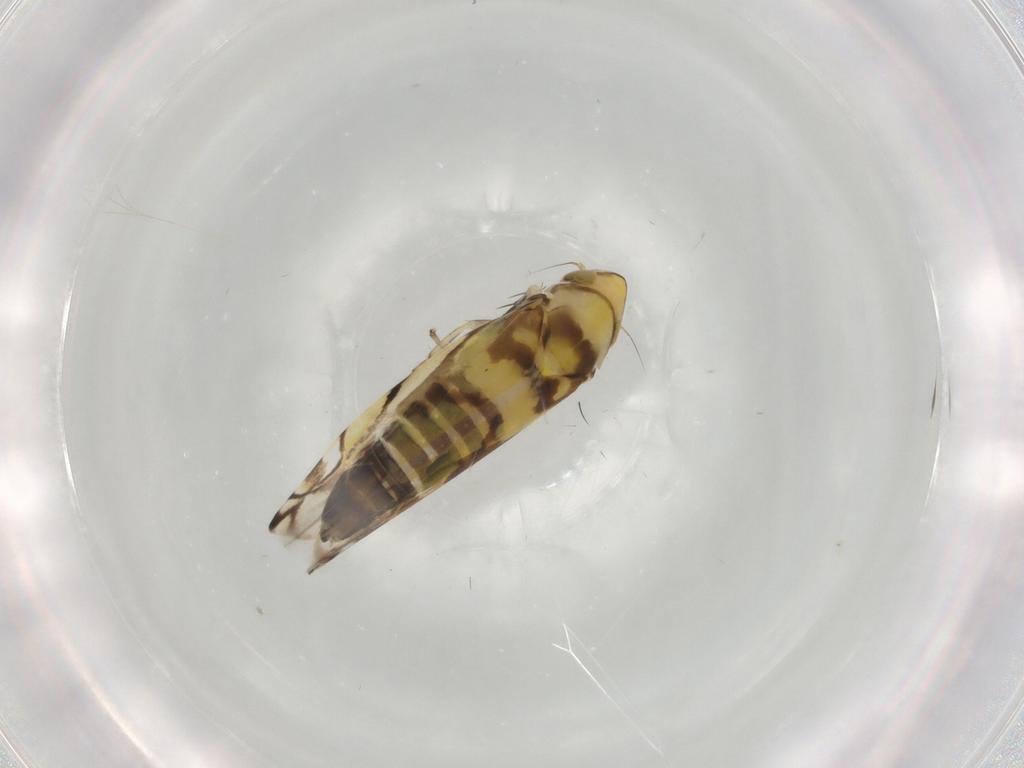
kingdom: Animalia
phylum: Arthropoda
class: Insecta
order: Hemiptera
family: Cicadellidae
